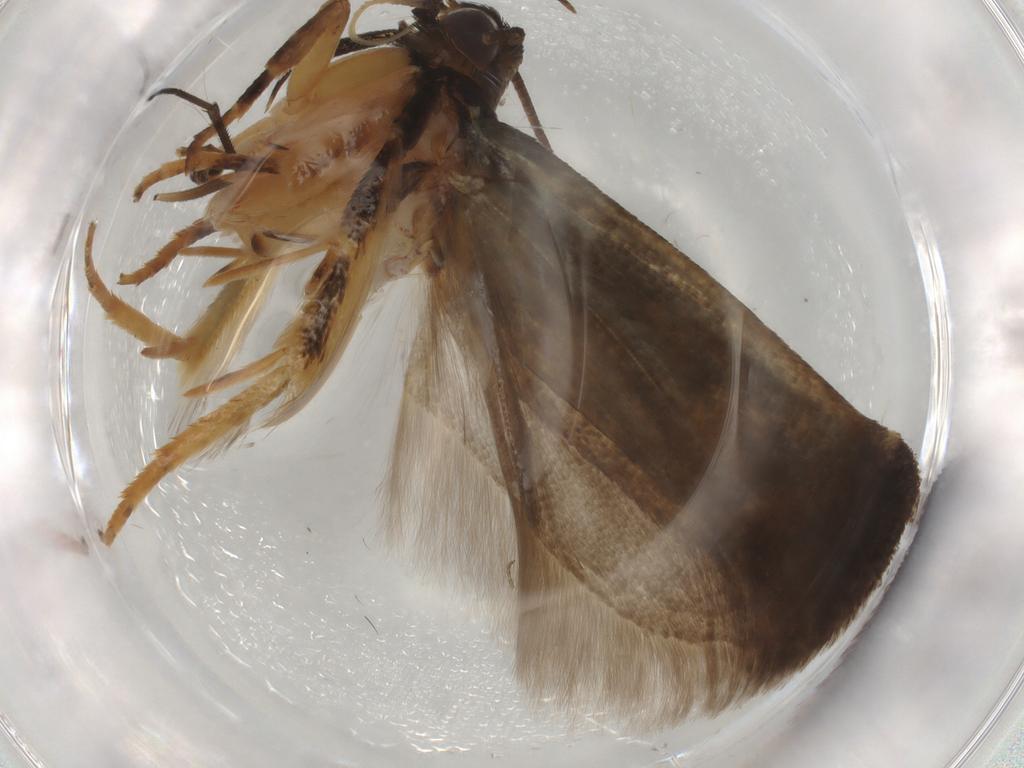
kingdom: Animalia
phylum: Arthropoda
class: Insecta
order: Lepidoptera
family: Gelechiidae
